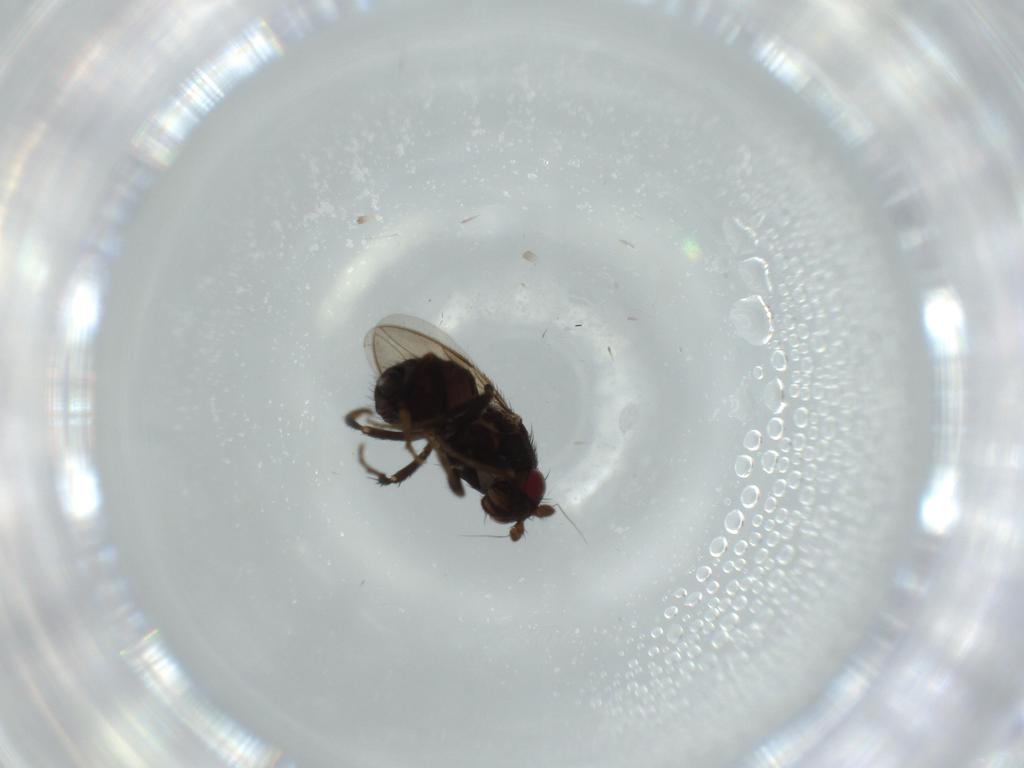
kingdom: Animalia
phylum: Arthropoda
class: Insecta
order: Diptera
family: Sphaeroceridae
